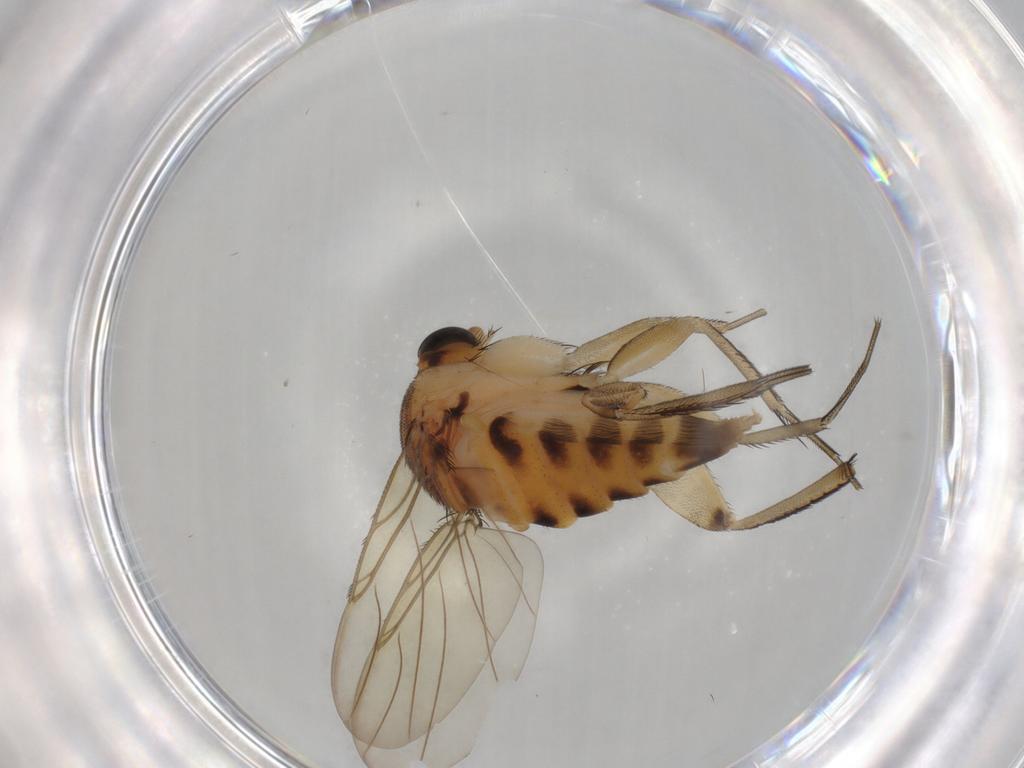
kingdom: Animalia
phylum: Arthropoda
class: Insecta
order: Diptera
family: Phoridae
